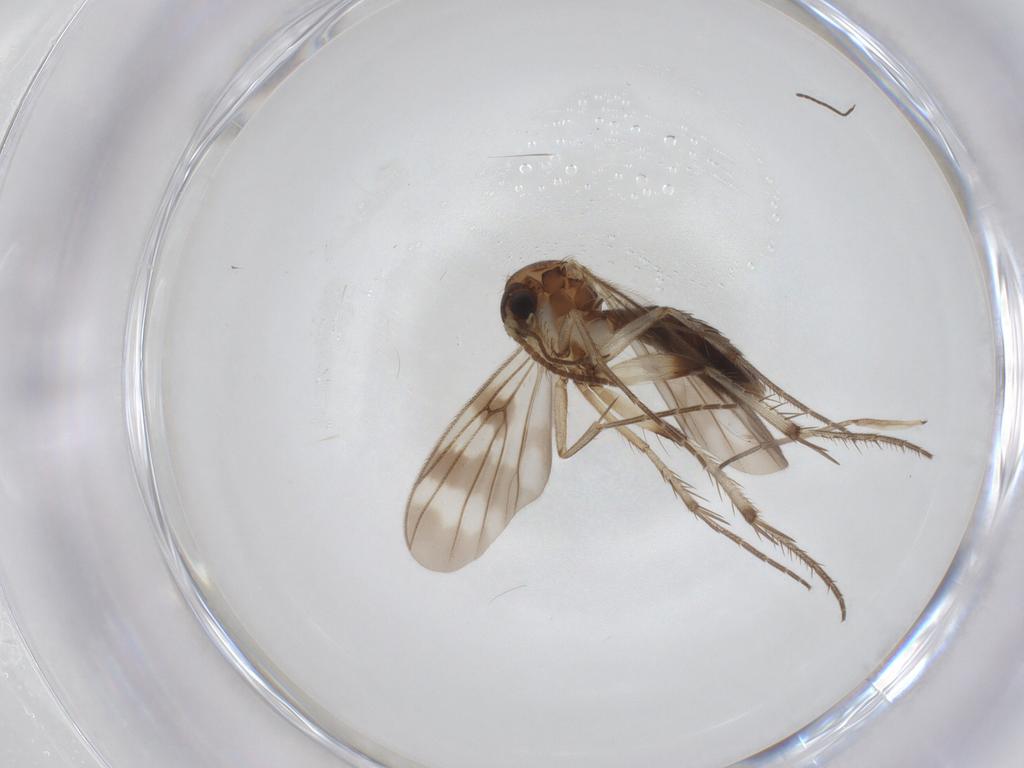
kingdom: Animalia
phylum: Arthropoda
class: Insecta
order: Diptera
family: Mycetophilidae
